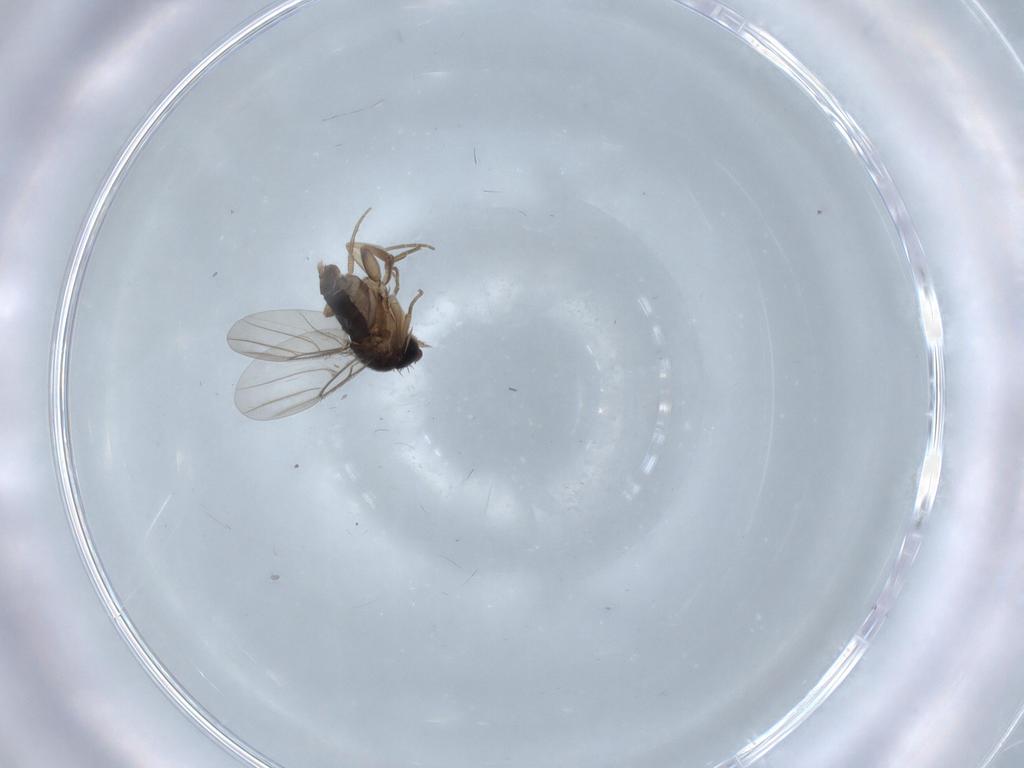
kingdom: Animalia
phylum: Arthropoda
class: Insecta
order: Diptera
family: Phoridae
